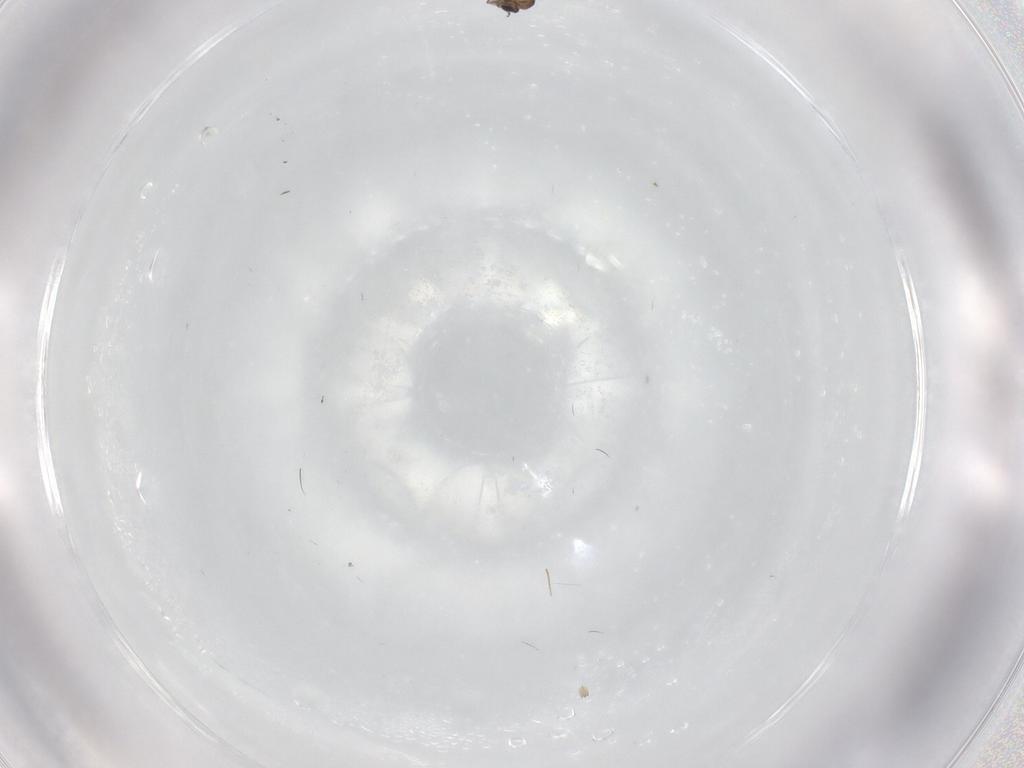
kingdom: Animalia
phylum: Arthropoda
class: Insecta
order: Diptera
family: Chironomidae
